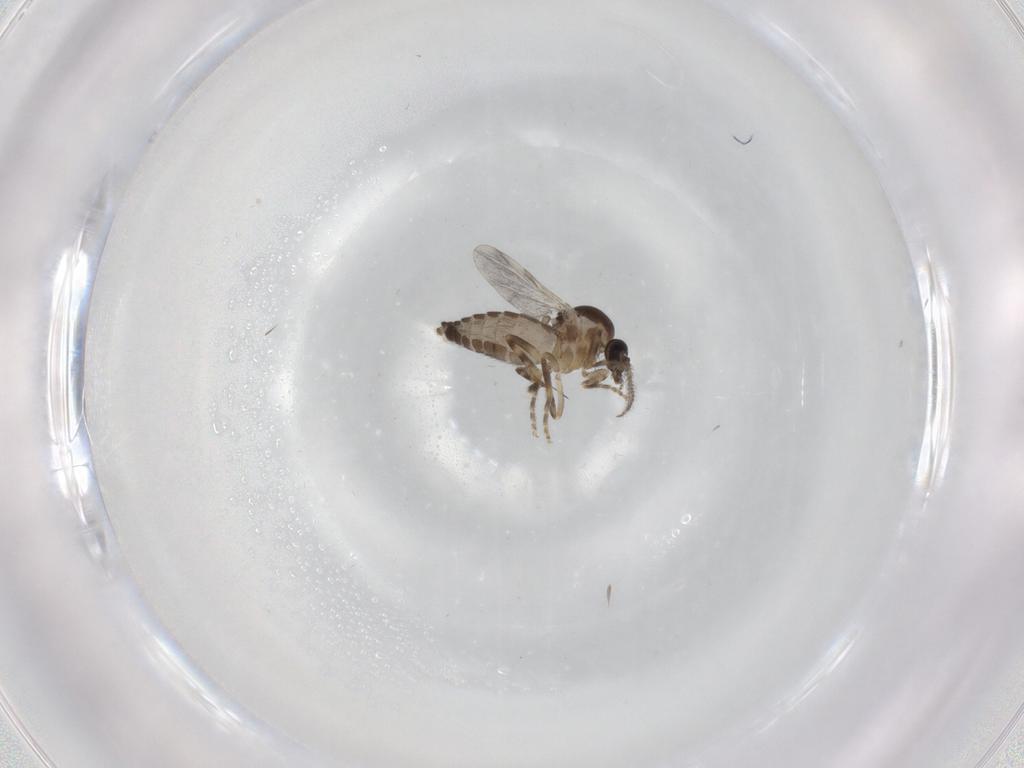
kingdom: Animalia
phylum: Arthropoda
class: Insecta
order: Diptera
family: Ceratopogonidae
